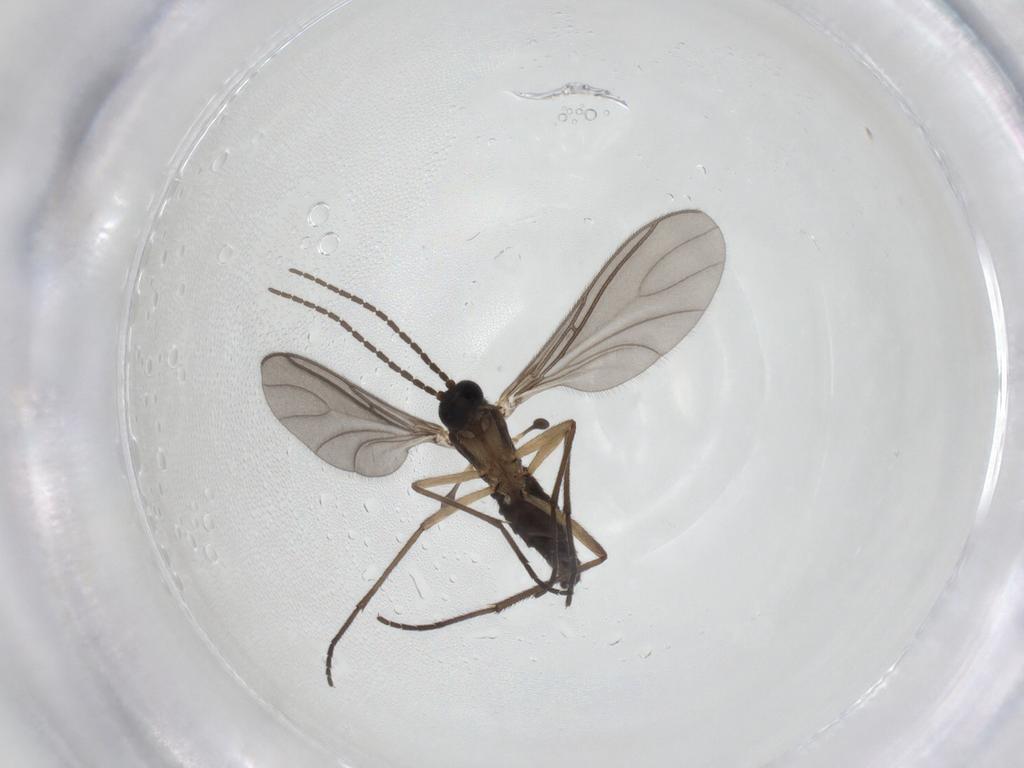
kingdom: Animalia
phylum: Arthropoda
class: Insecta
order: Diptera
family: Sciaridae
